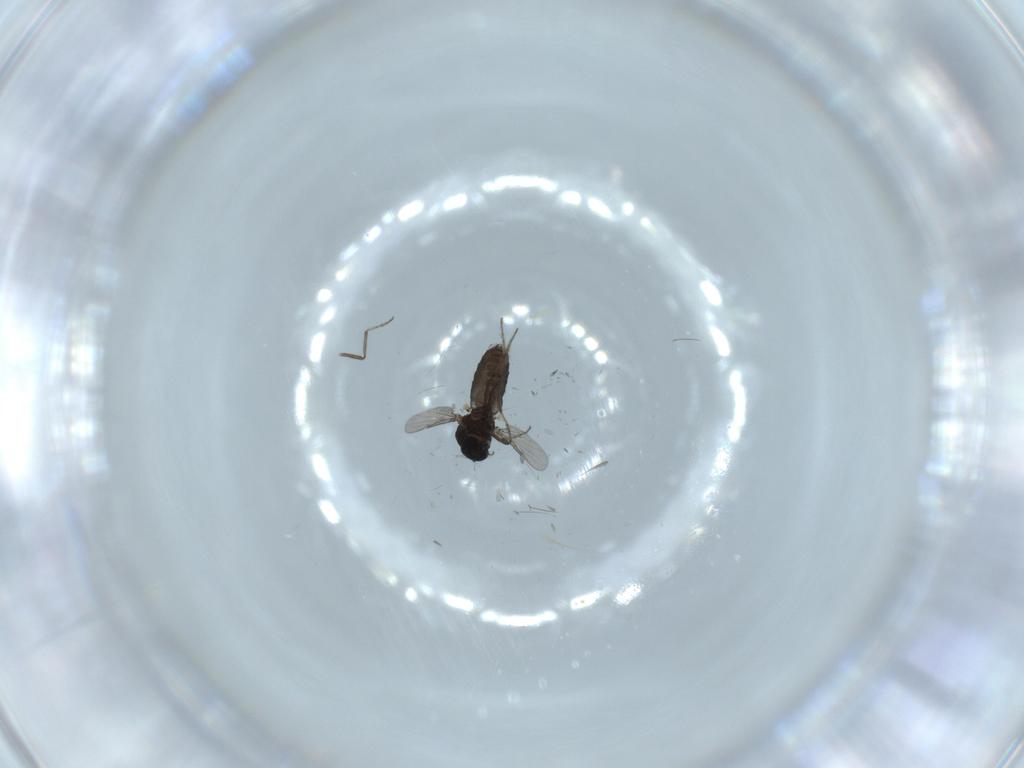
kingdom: Animalia
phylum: Arthropoda
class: Insecta
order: Diptera
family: Ceratopogonidae
